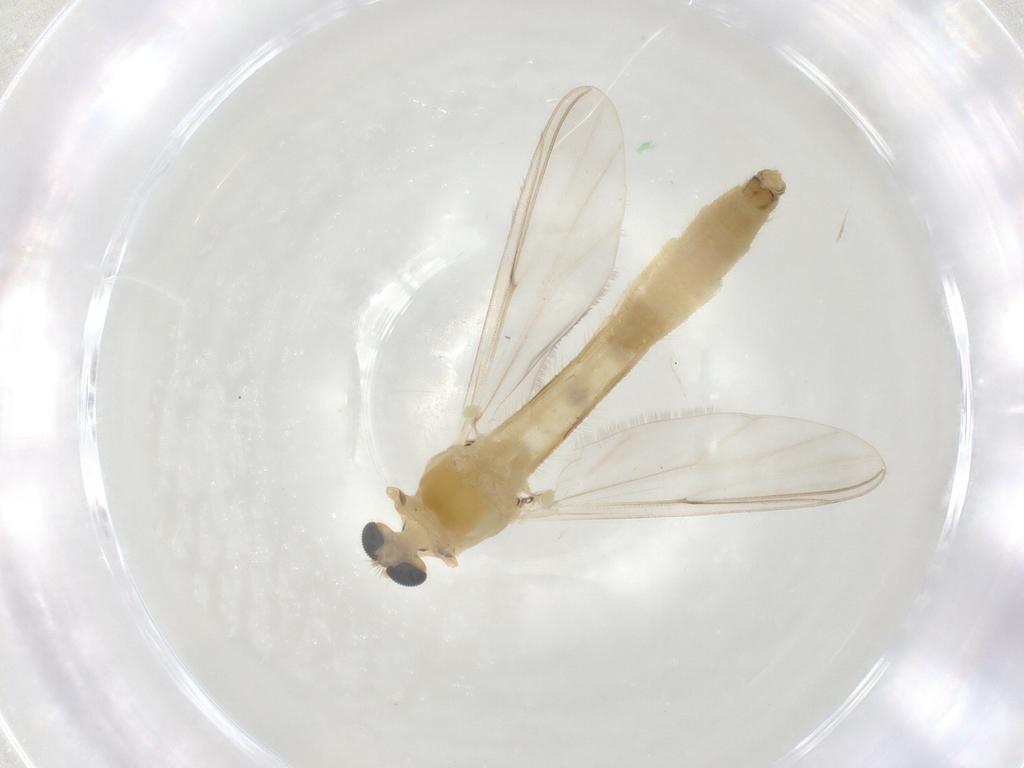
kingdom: Animalia
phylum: Arthropoda
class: Insecta
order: Diptera
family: Chironomidae
